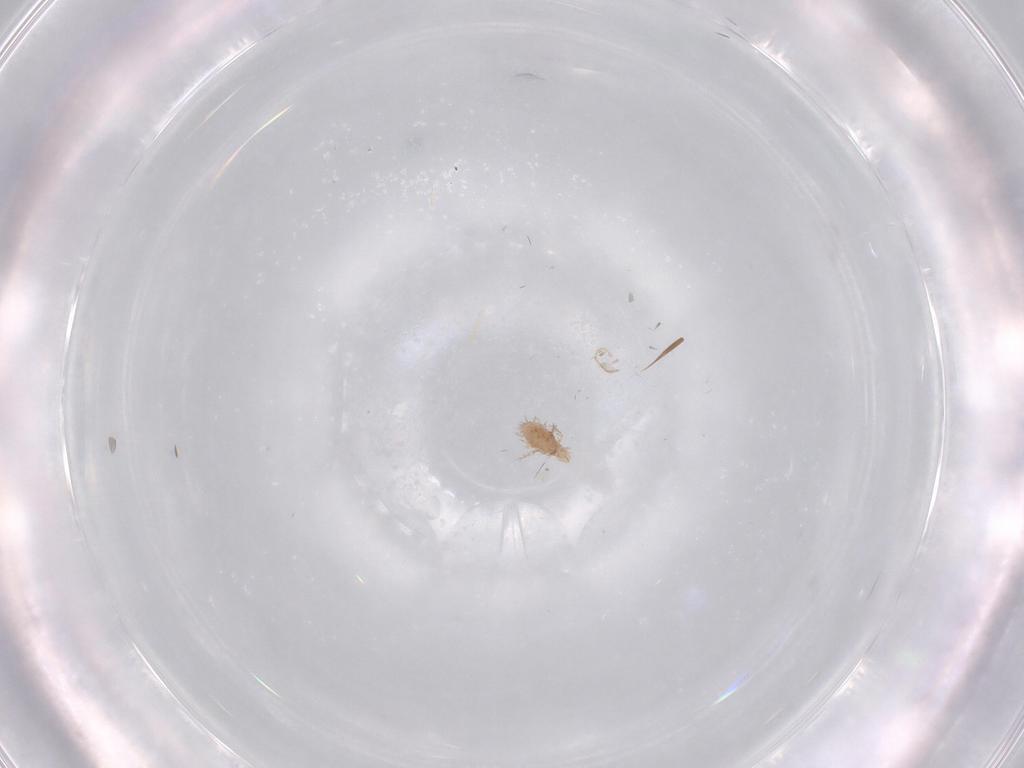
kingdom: Animalia
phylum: Arthropoda
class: Arachnida
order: Trombidiformes
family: Erythraeidae
